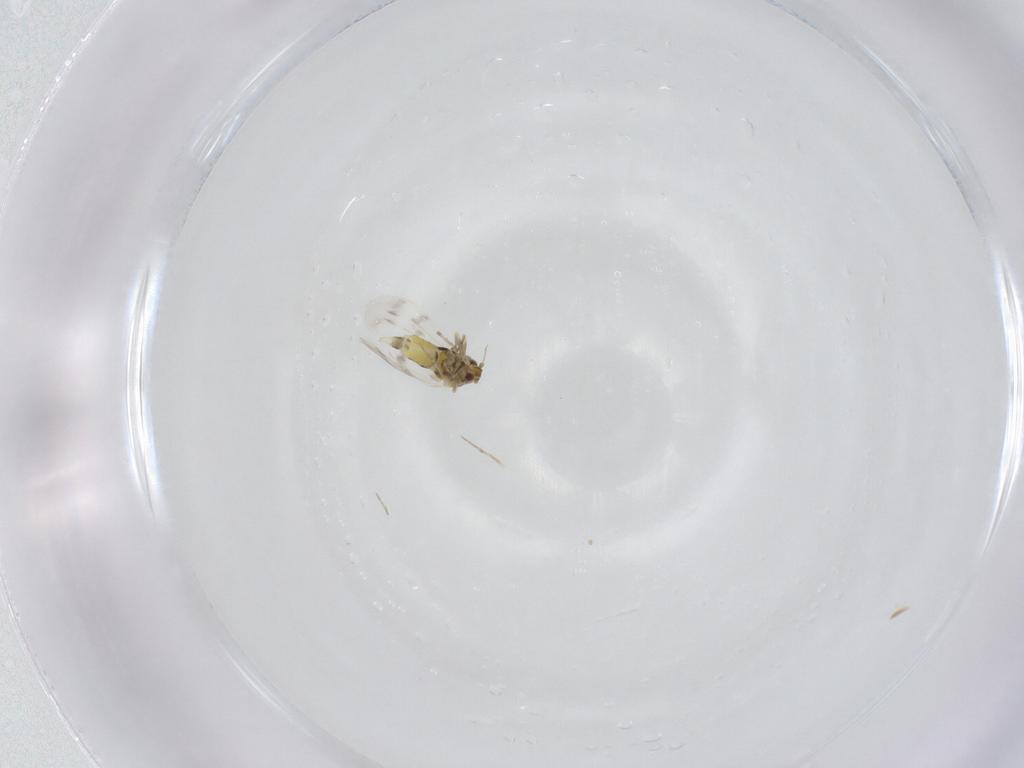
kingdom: Animalia
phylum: Arthropoda
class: Insecta
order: Hemiptera
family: Aleyrodidae
